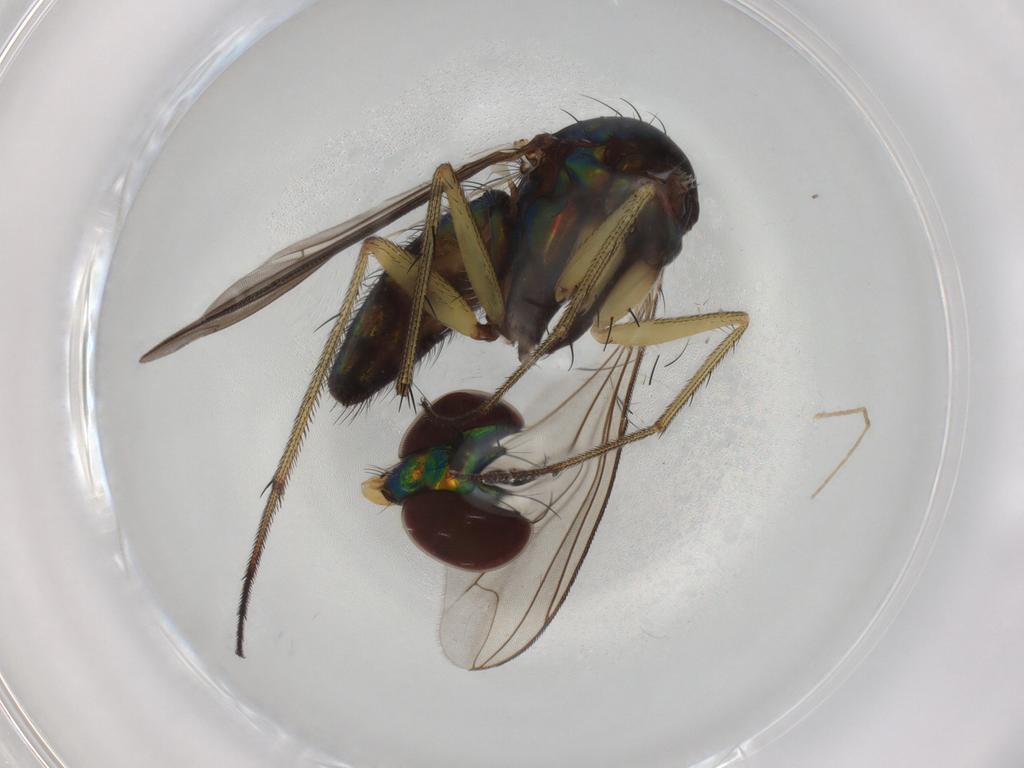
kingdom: Animalia
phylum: Arthropoda
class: Insecta
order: Diptera
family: Dolichopodidae
